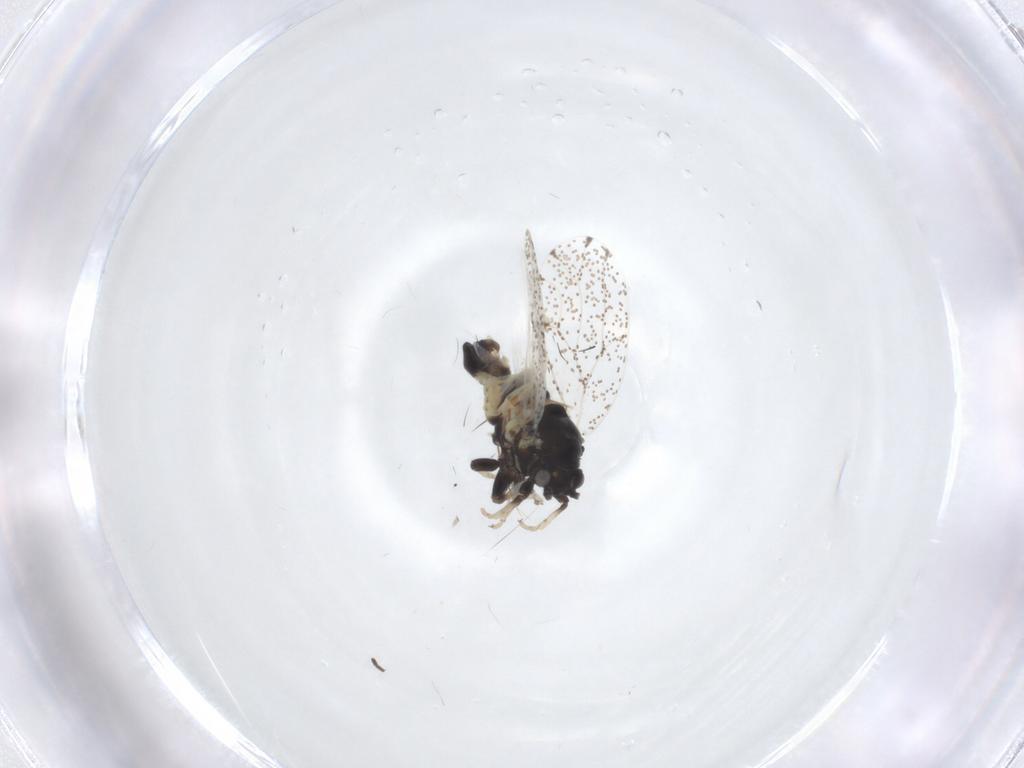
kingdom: Animalia
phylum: Arthropoda
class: Insecta
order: Hemiptera
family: Aphalaridae
